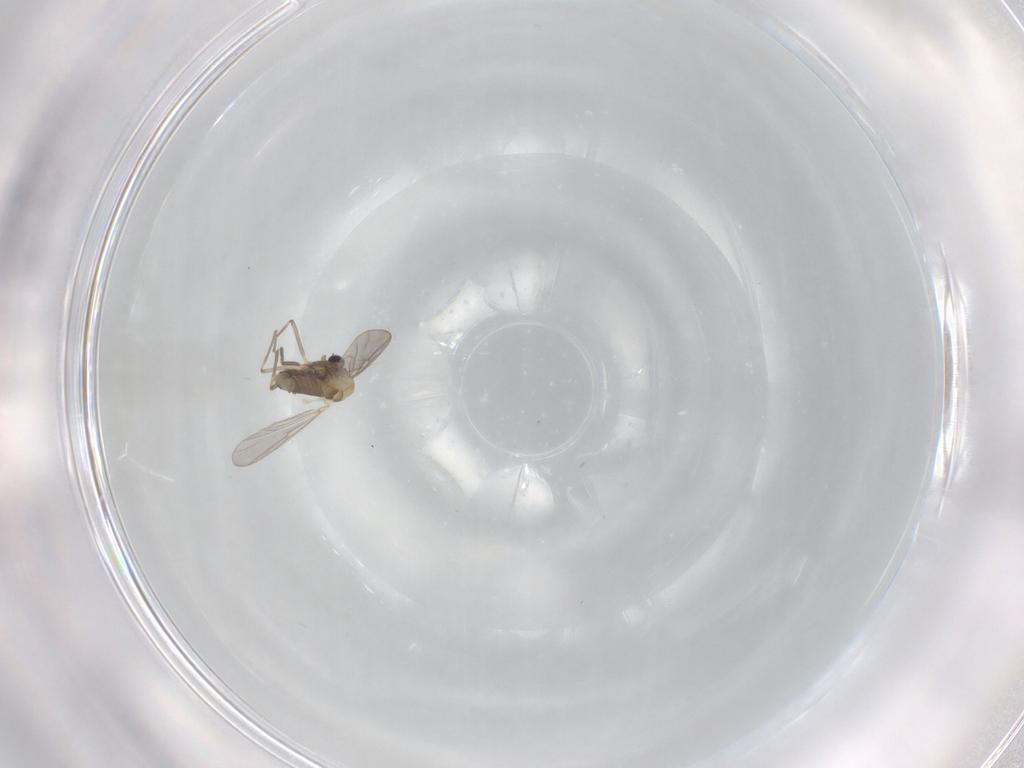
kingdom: Animalia
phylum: Arthropoda
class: Insecta
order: Diptera
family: Chironomidae
